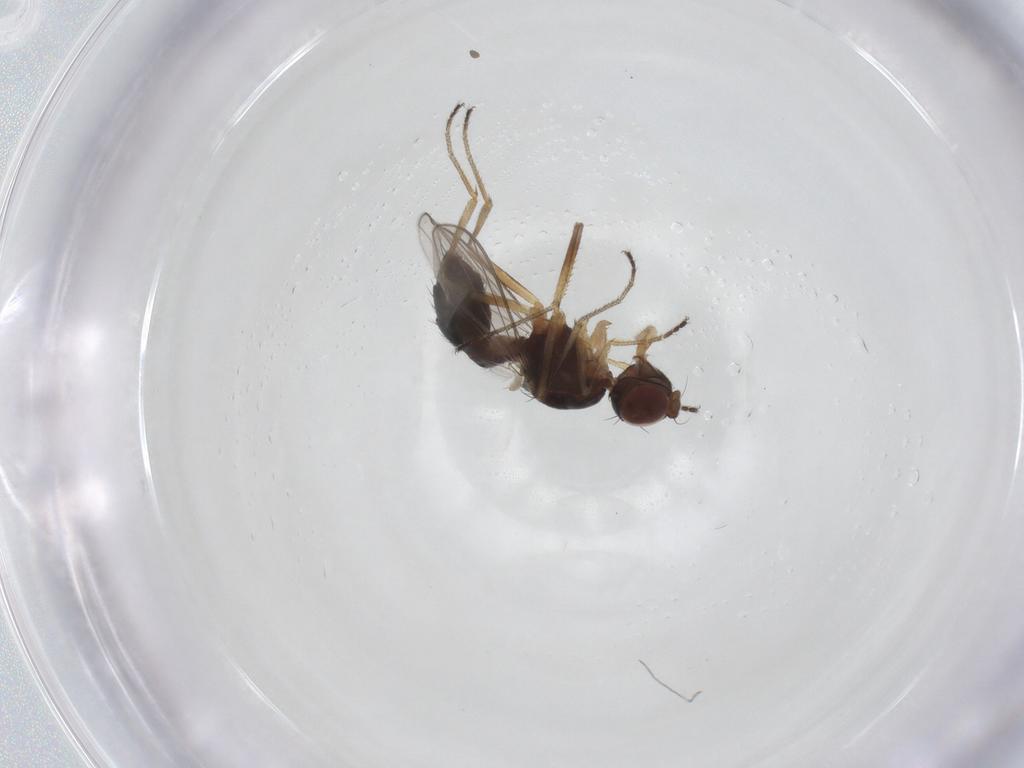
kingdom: Animalia
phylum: Arthropoda
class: Insecta
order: Diptera
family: Sepsidae
